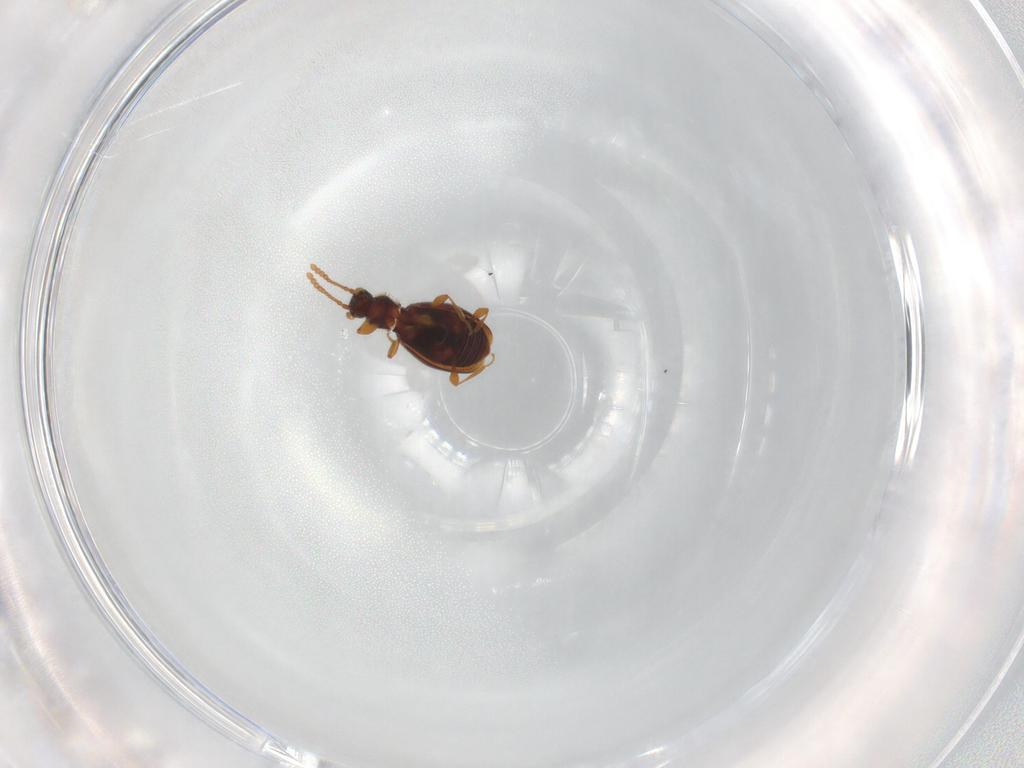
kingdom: Animalia
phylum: Arthropoda
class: Insecta
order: Coleoptera
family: Staphylinidae
